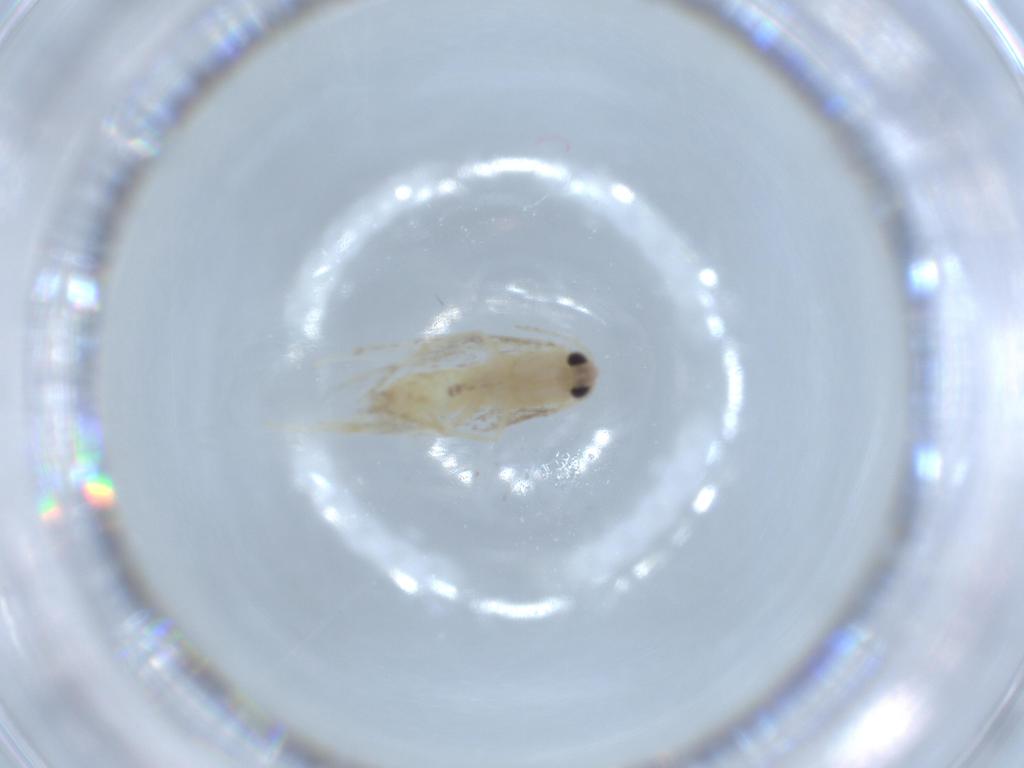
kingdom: Animalia
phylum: Arthropoda
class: Insecta
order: Lepidoptera
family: Bucculatricidae
